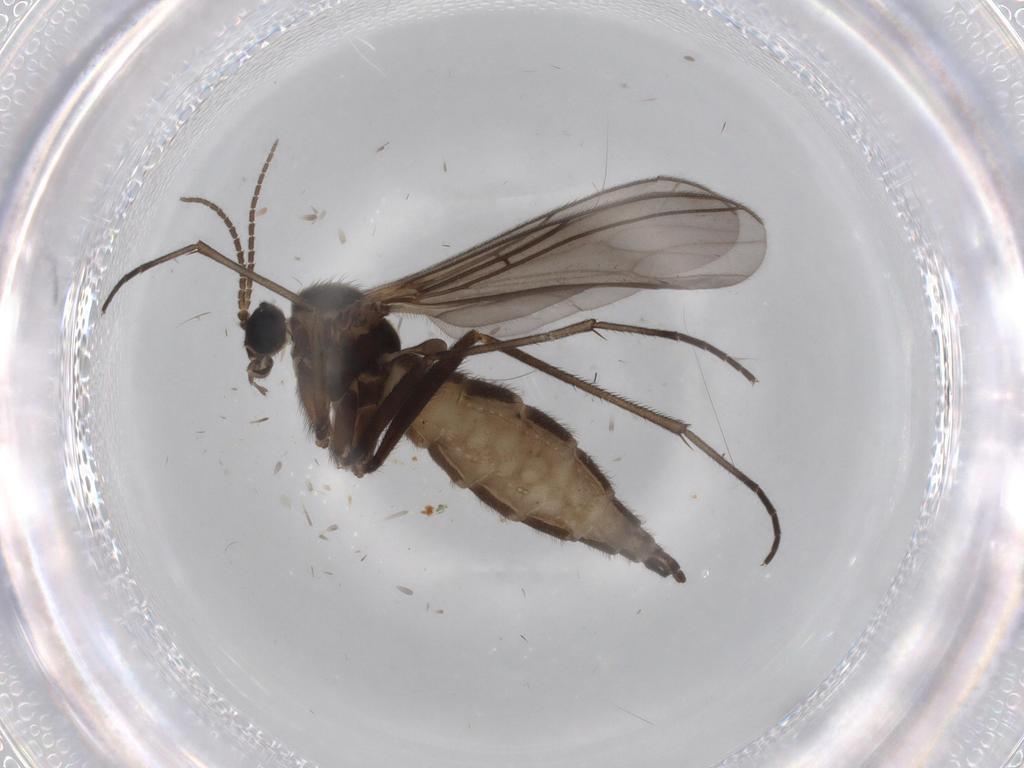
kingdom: Animalia
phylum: Arthropoda
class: Insecta
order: Diptera
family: Sciaridae
